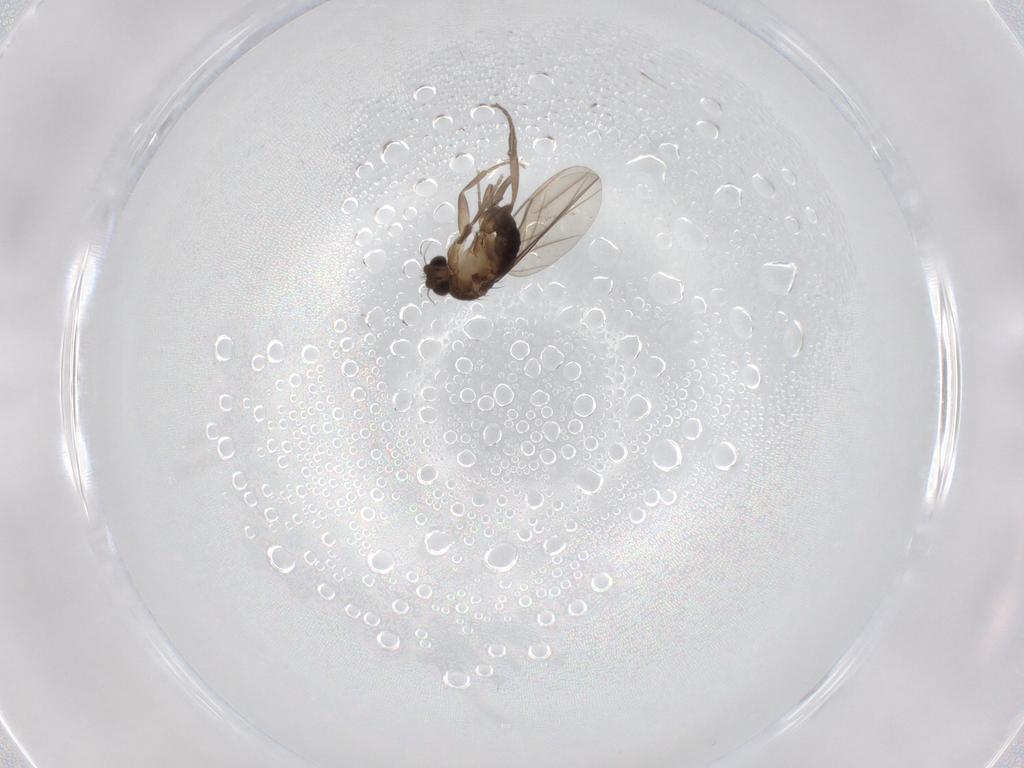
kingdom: Animalia
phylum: Arthropoda
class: Insecta
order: Diptera
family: Phoridae
